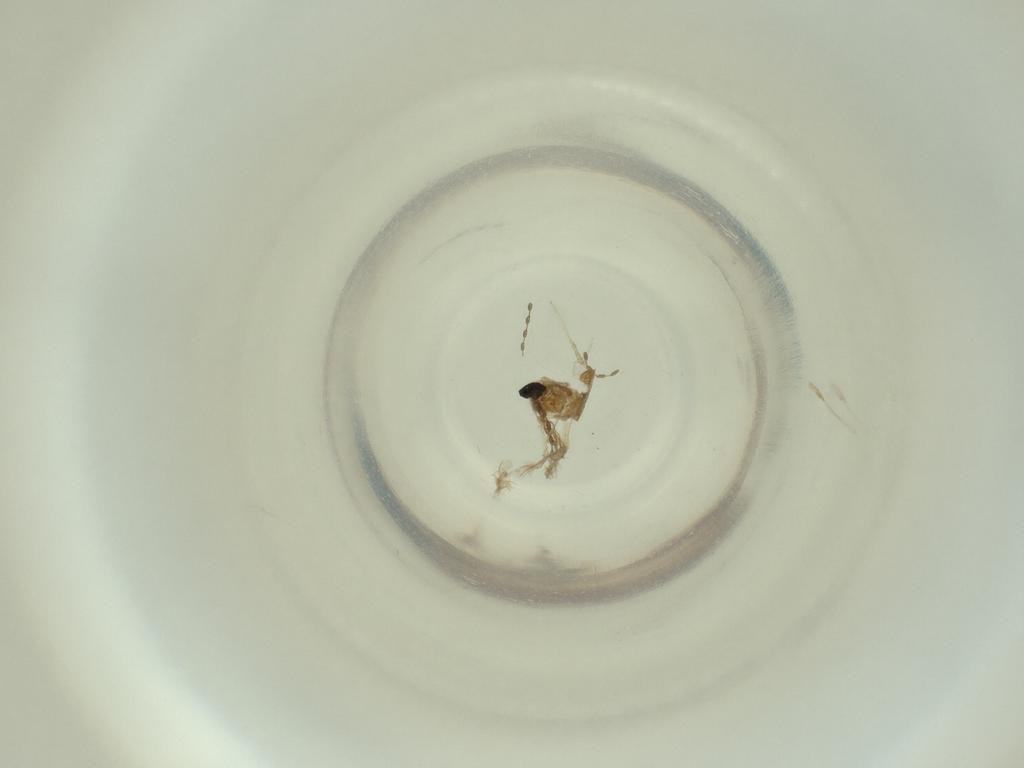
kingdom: Animalia
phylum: Arthropoda
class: Insecta
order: Diptera
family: Cecidomyiidae
